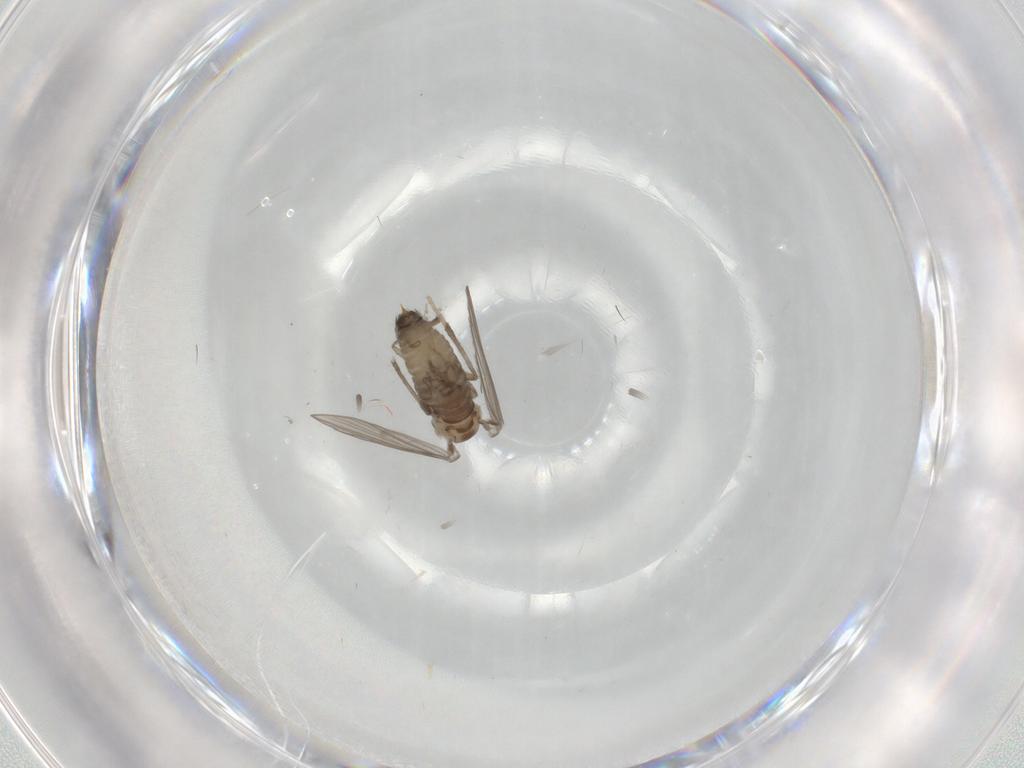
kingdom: Animalia
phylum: Arthropoda
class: Insecta
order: Diptera
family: Psychodidae
